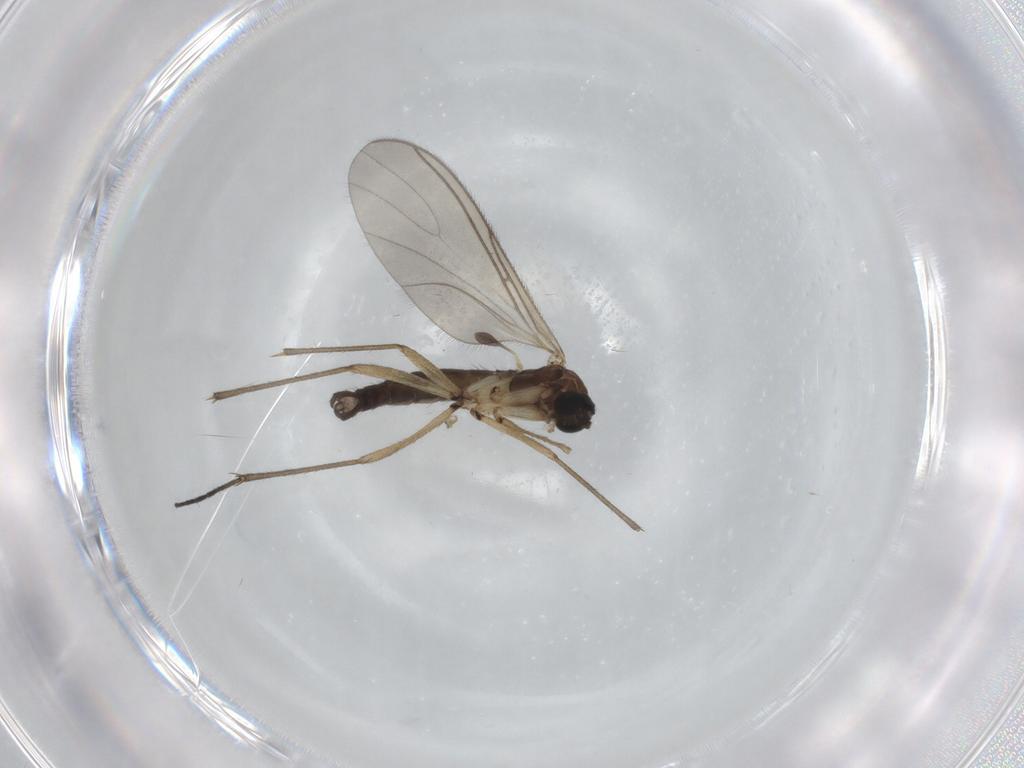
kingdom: Animalia
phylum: Arthropoda
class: Insecta
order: Diptera
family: Sciaridae
